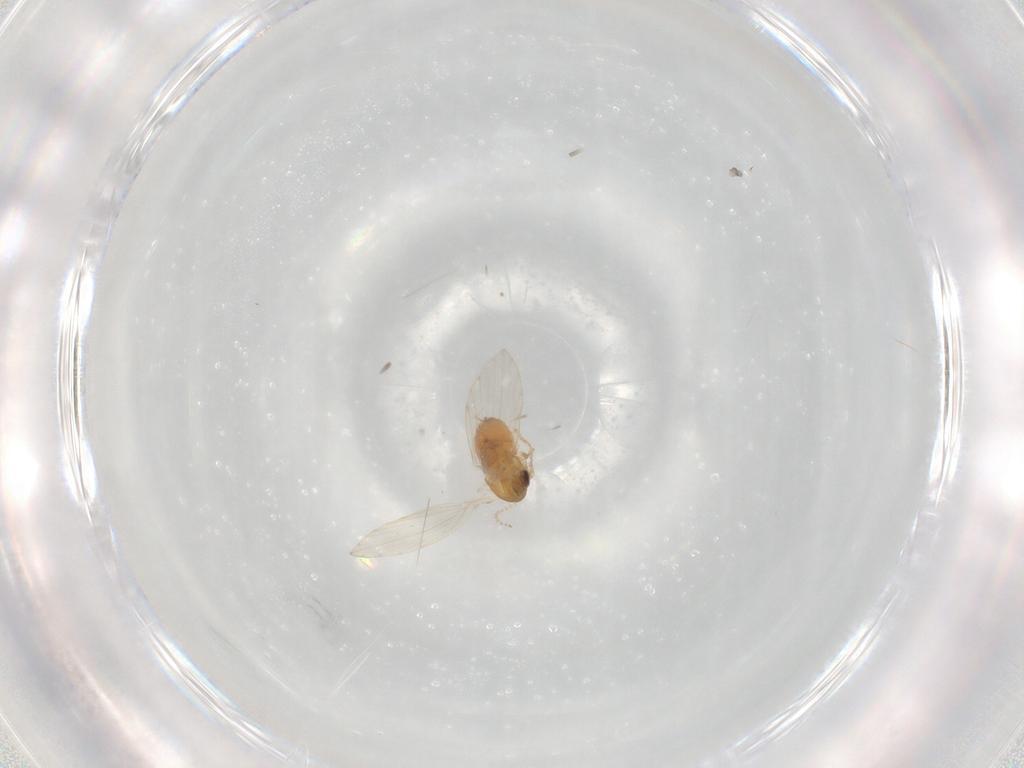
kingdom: Animalia
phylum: Arthropoda
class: Insecta
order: Diptera
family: Psychodidae
